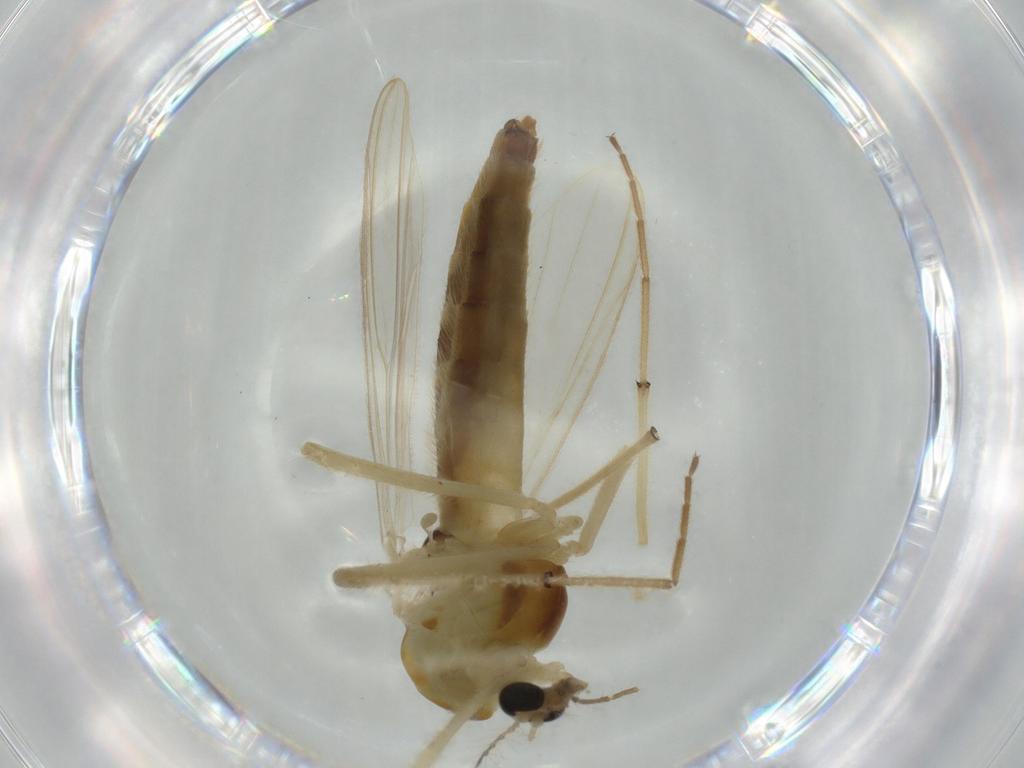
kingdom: Animalia
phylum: Arthropoda
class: Insecta
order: Diptera
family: Chironomidae
